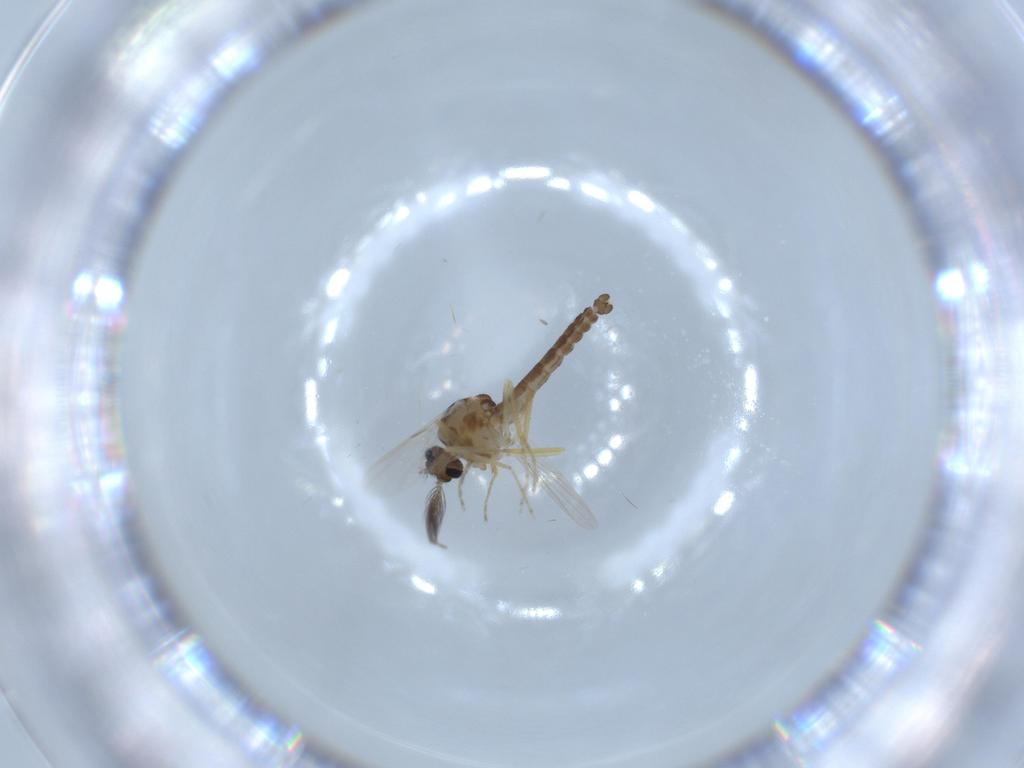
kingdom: Animalia
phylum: Arthropoda
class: Insecta
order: Diptera
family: Ceratopogonidae
